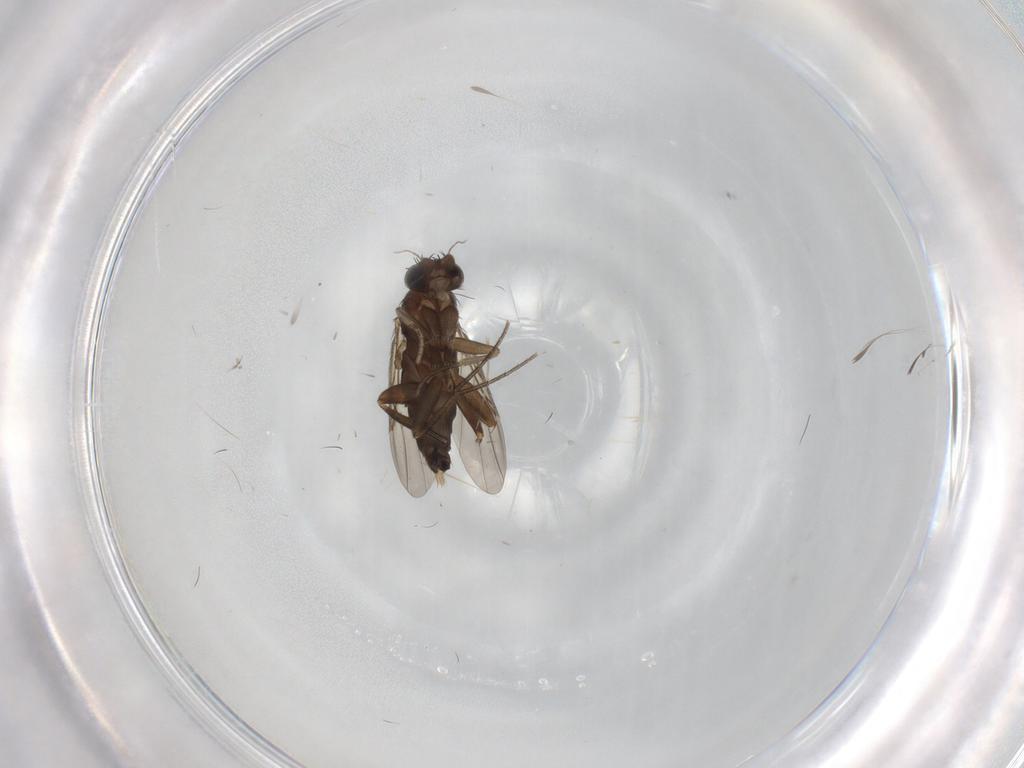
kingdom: Animalia
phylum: Arthropoda
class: Insecta
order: Diptera
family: Phoridae
